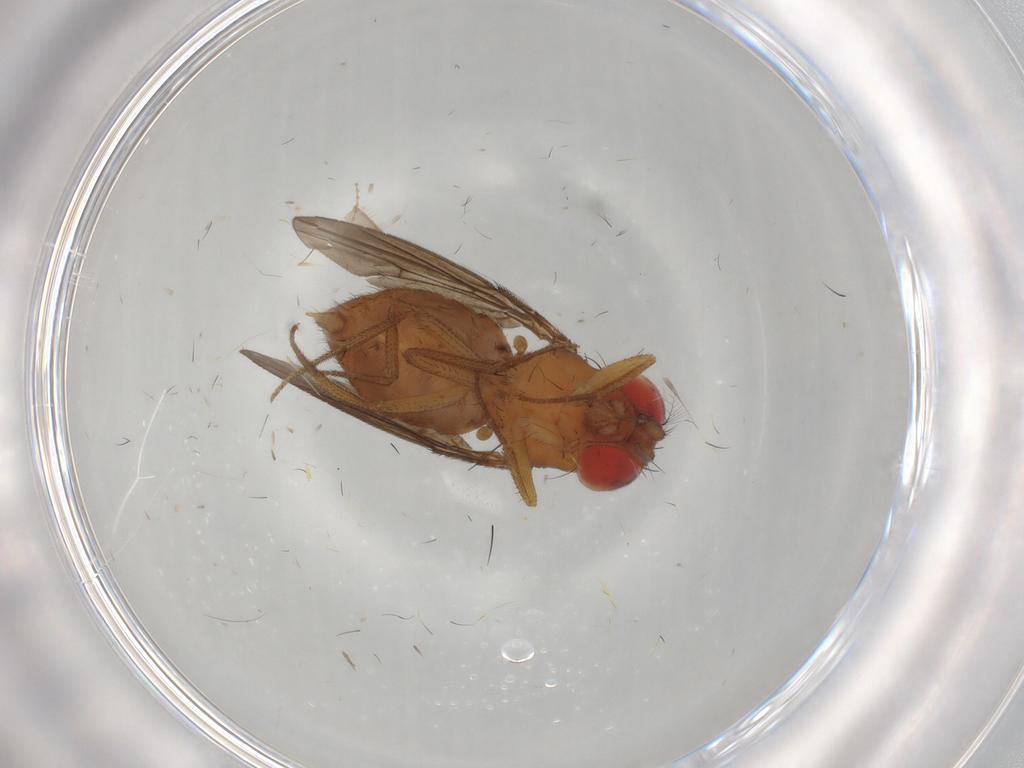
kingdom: Animalia
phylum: Arthropoda
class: Insecta
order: Diptera
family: Drosophilidae
